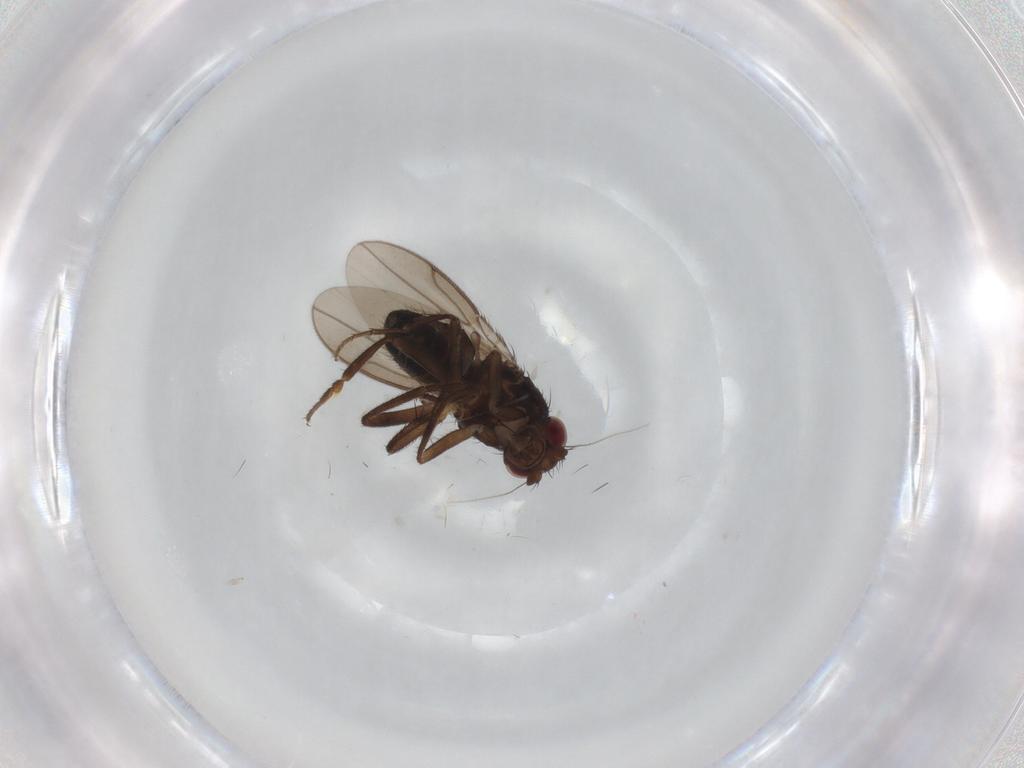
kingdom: Animalia
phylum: Arthropoda
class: Insecta
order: Diptera
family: Sphaeroceridae
